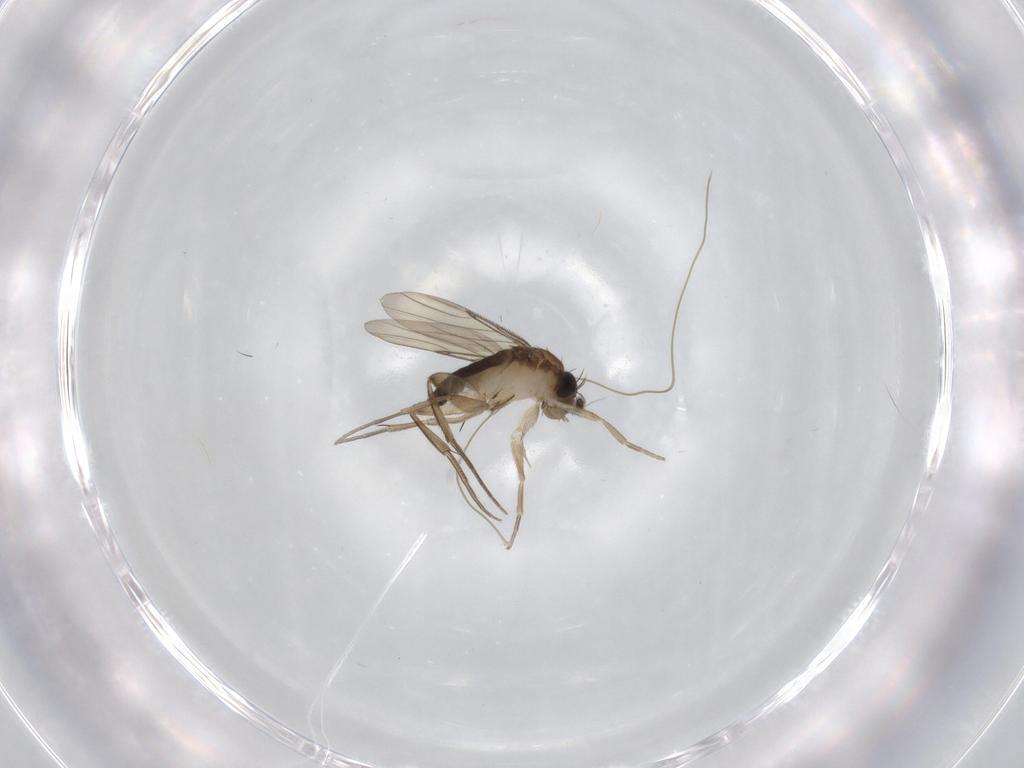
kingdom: Animalia
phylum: Arthropoda
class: Insecta
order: Diptera
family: Phoridae
